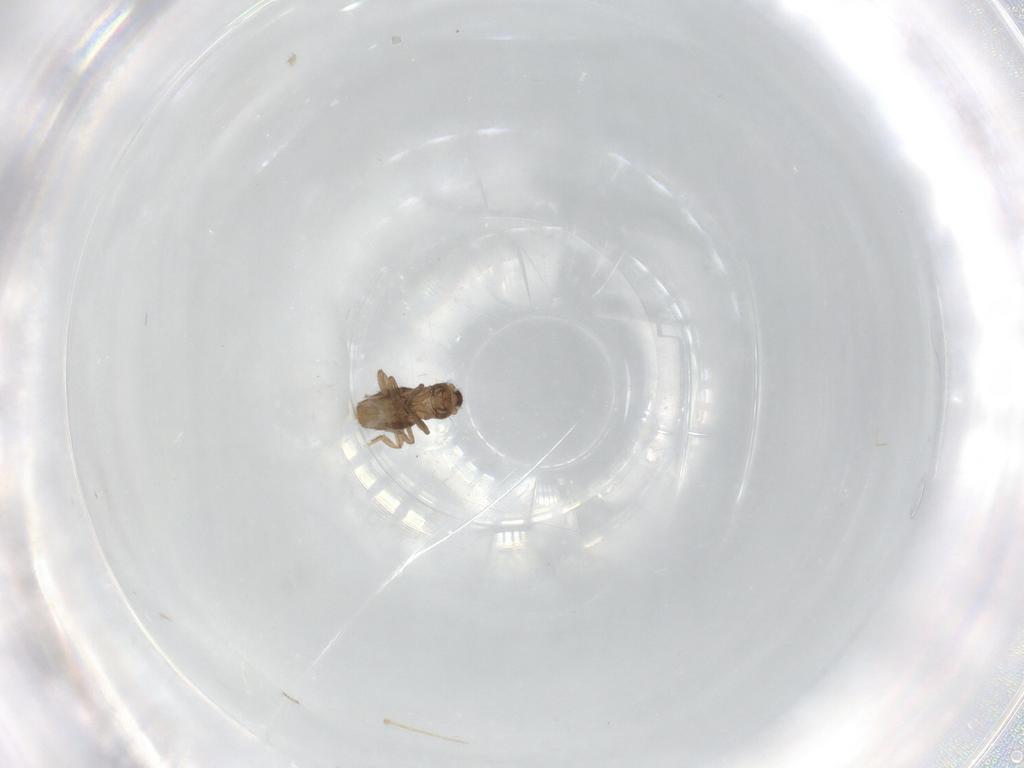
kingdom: Animalia
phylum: Arthropoda
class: Insecta
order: Diptera
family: Phoridae
